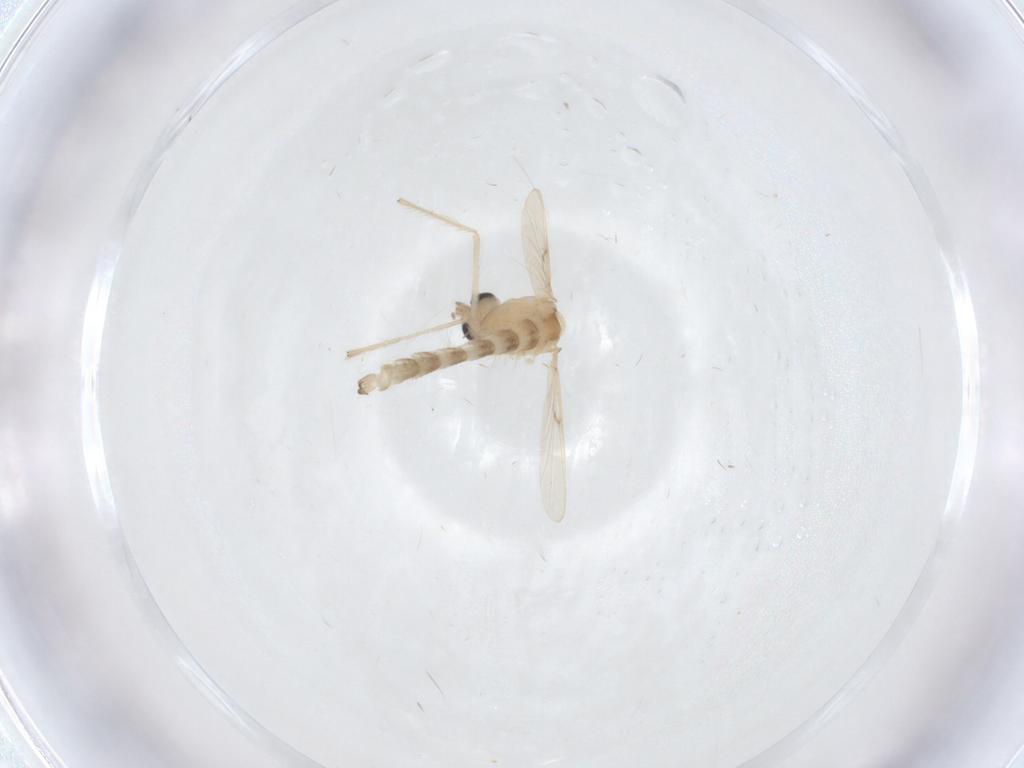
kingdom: Animalia
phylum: Arthropoda
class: Insecta
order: Diptera
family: Chironomidae
